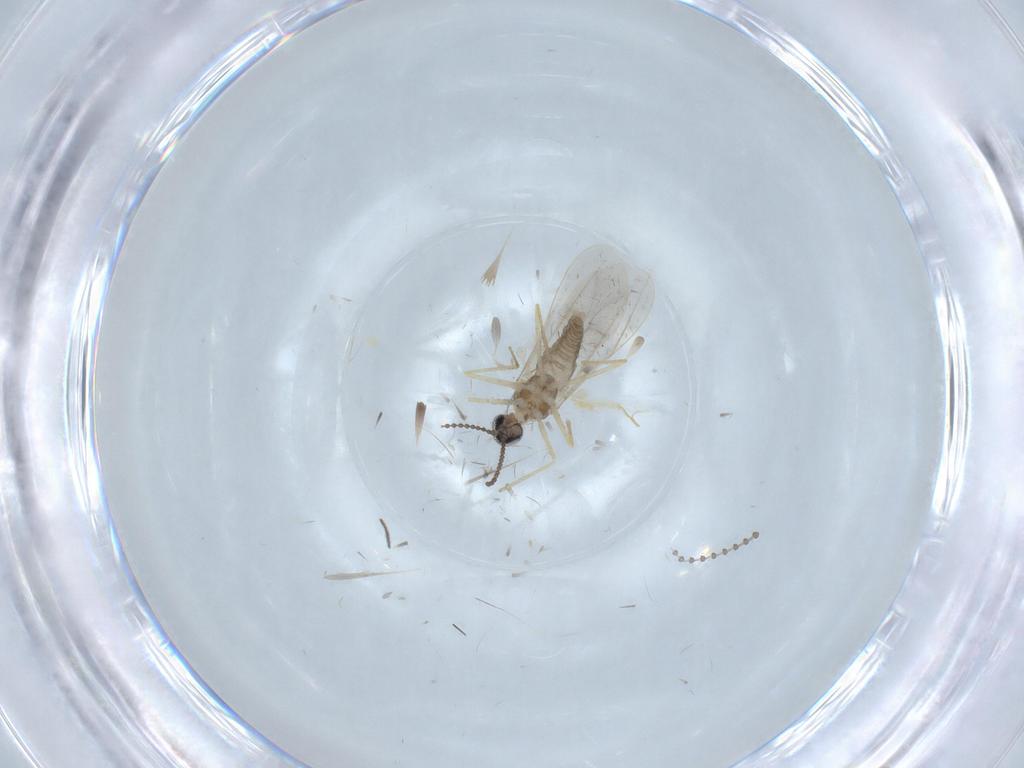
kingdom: Animalia
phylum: Arthropoda
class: Insecta
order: Diptera
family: Cecidomyiidae
